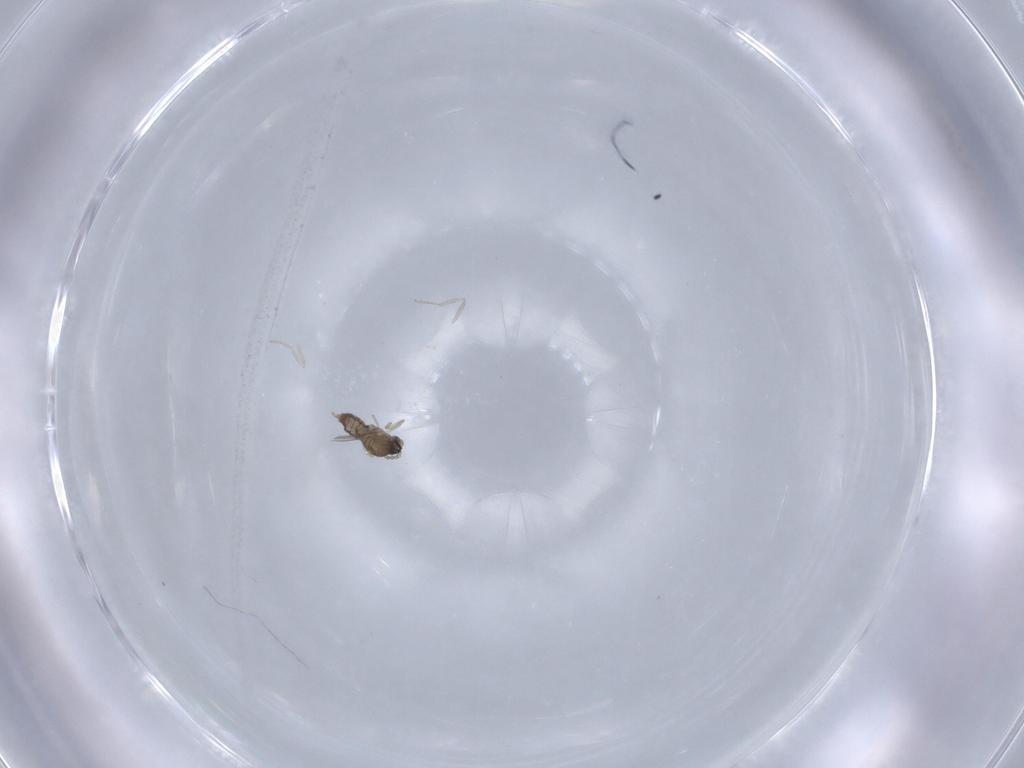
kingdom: Animalia
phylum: Arthropoda
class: Insecta
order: Diptera
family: Cecidomyiidae
